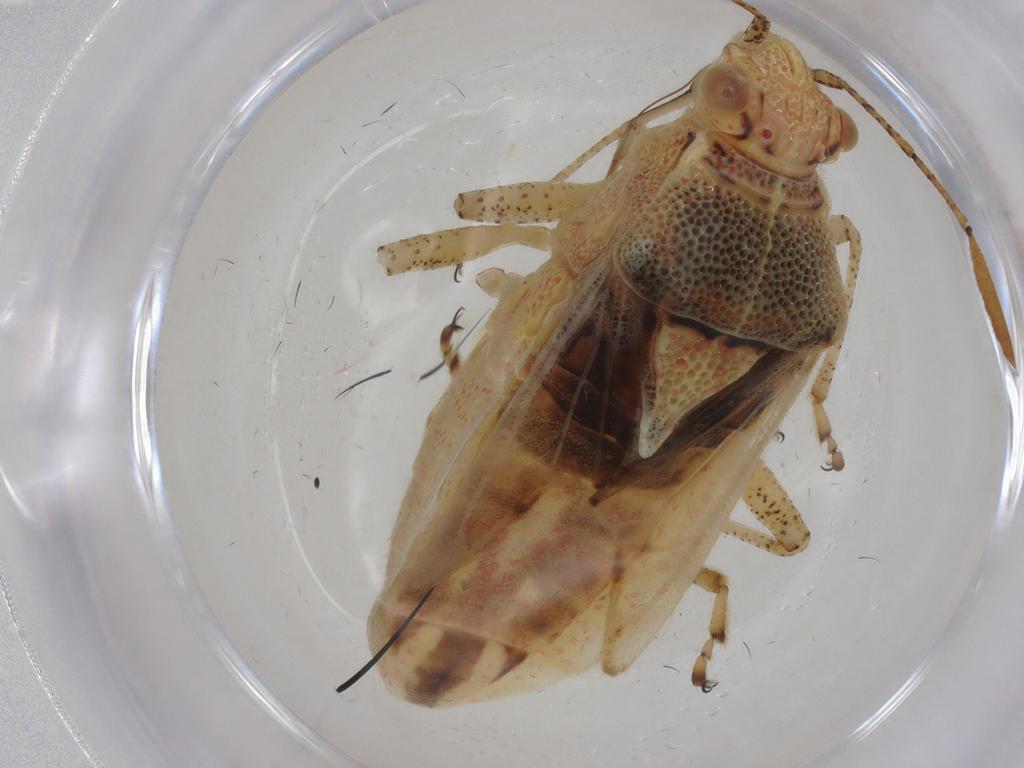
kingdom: Animalia
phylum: Arthropoda
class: Insecta
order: Hemiptera
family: Rhopalidae
